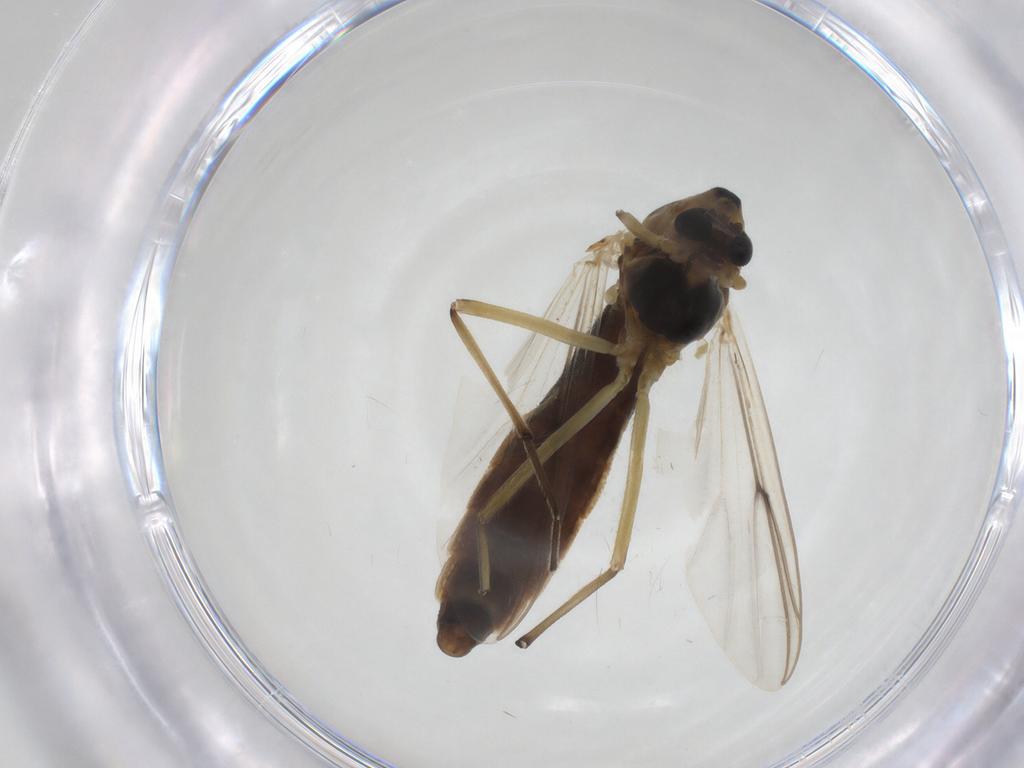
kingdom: Animalia
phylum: Arthropoda
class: Insecta
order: Diptera
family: Chironomidae
